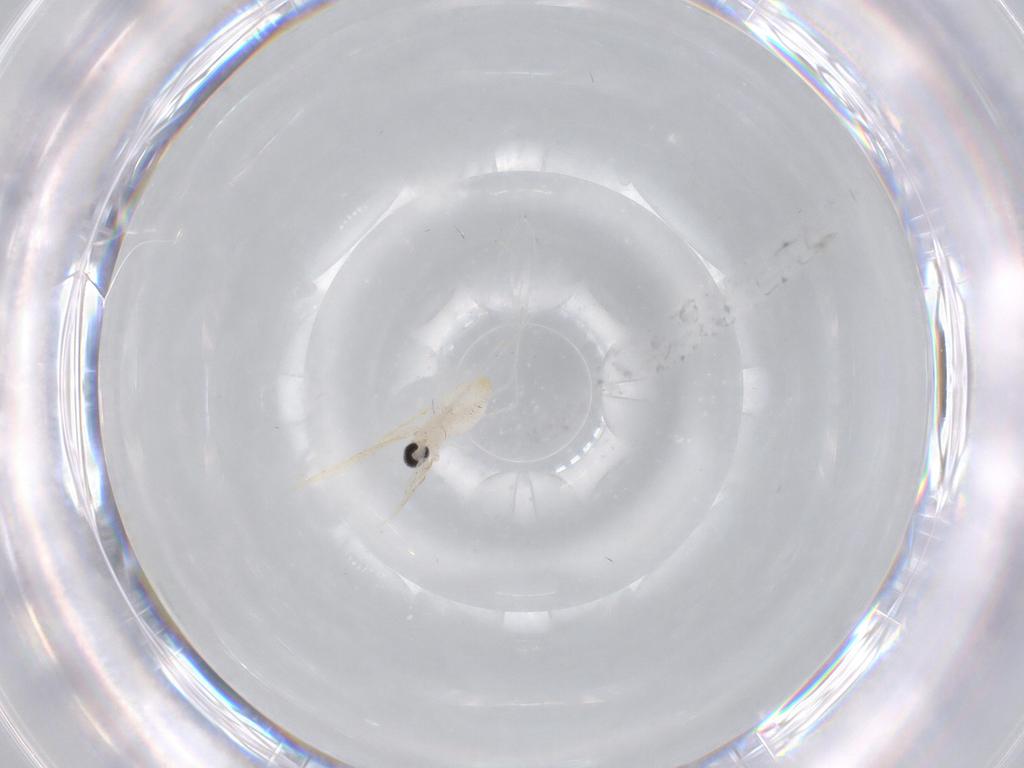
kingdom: Animalia
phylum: Arthropoda
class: Insecta
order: Diptera
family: Cecidomyiidae
